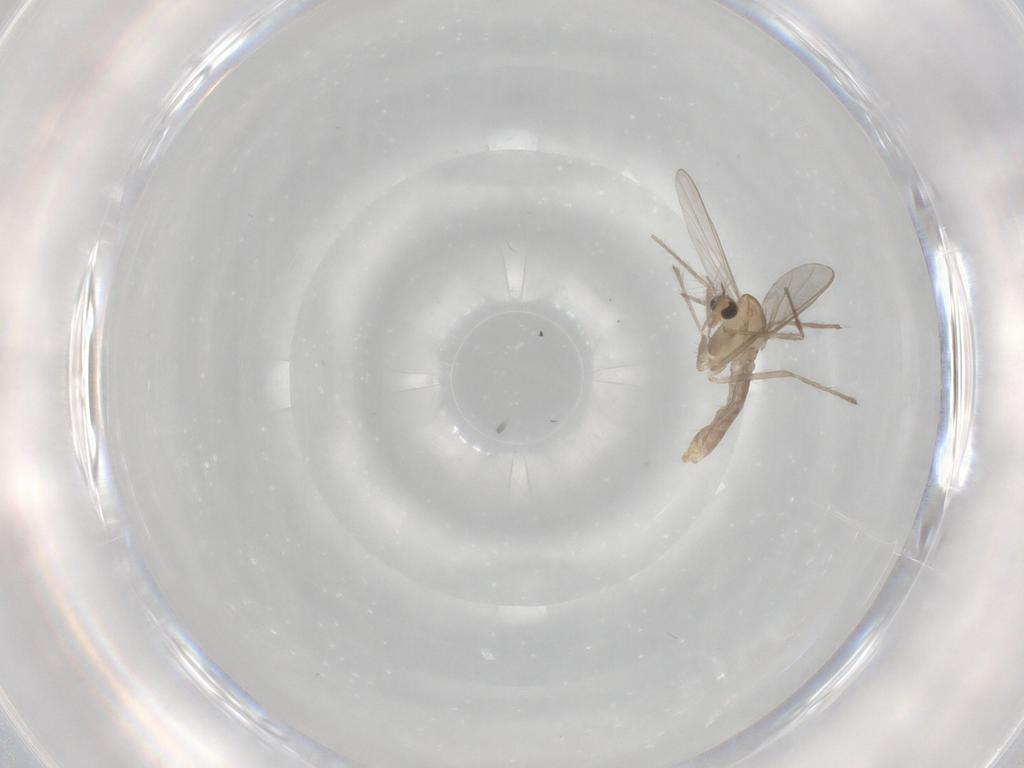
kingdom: Animalia
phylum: Arthropoda
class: Insecta
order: Diptera
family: Chironomidae
